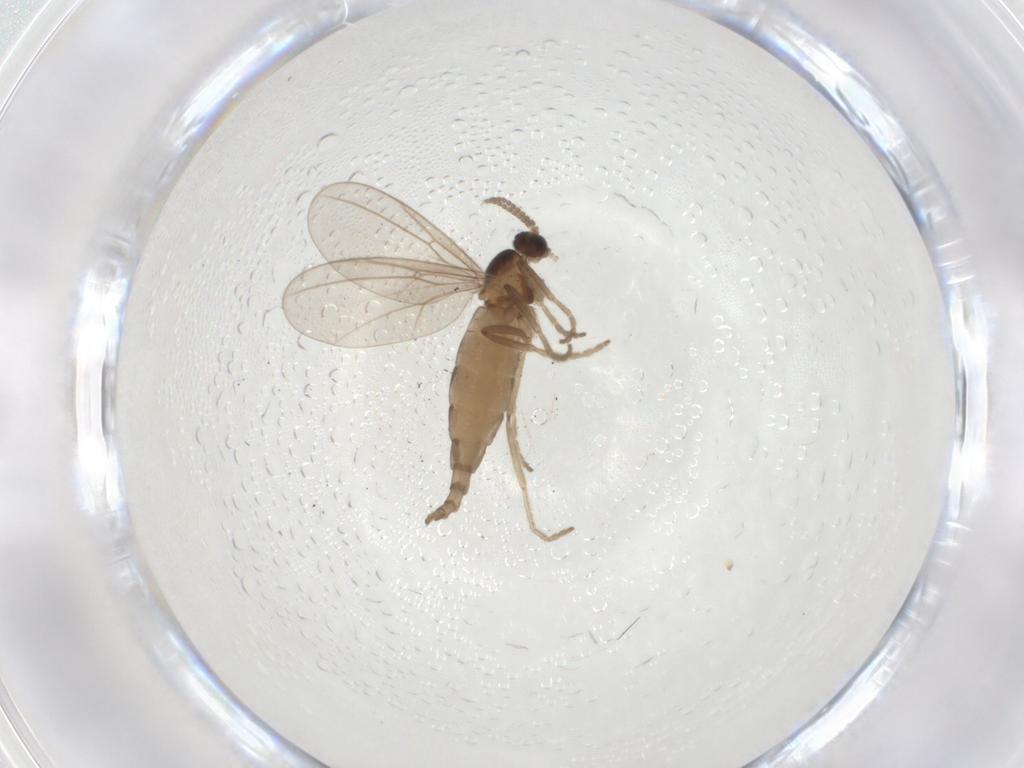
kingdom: Animalia
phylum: Arthropoda
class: Insecta
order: Diptera
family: Cecidomyiidae
